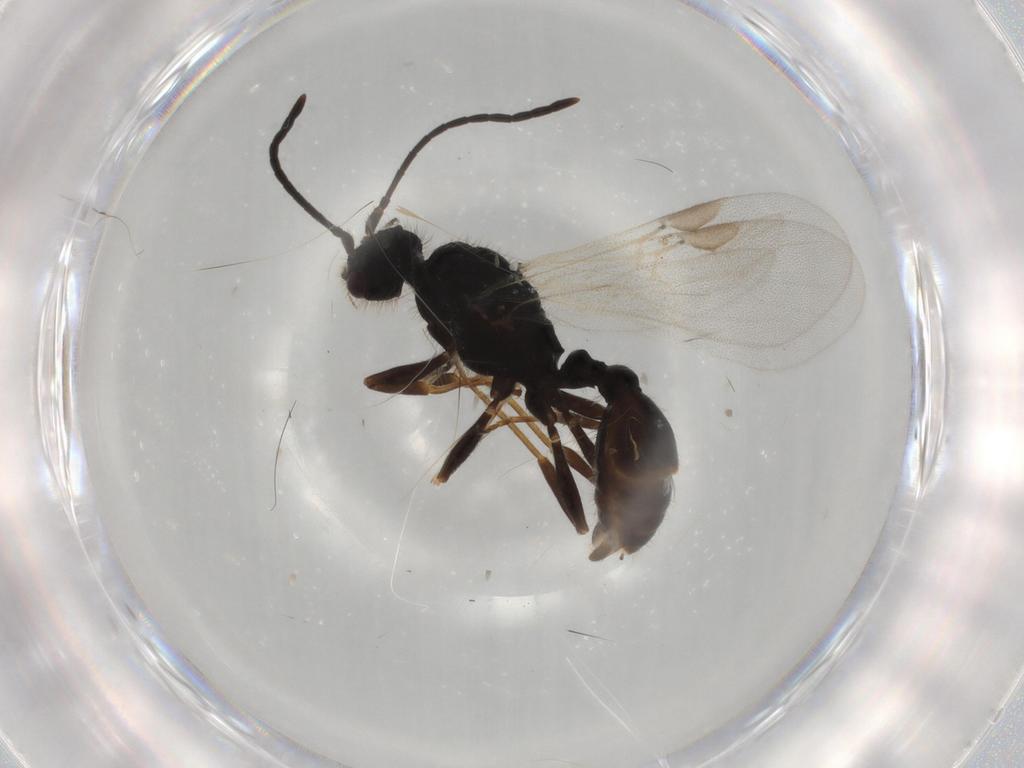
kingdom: Animalia
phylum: Arthropoda
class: Insecta
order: Hymenoptera
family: Formicidae
